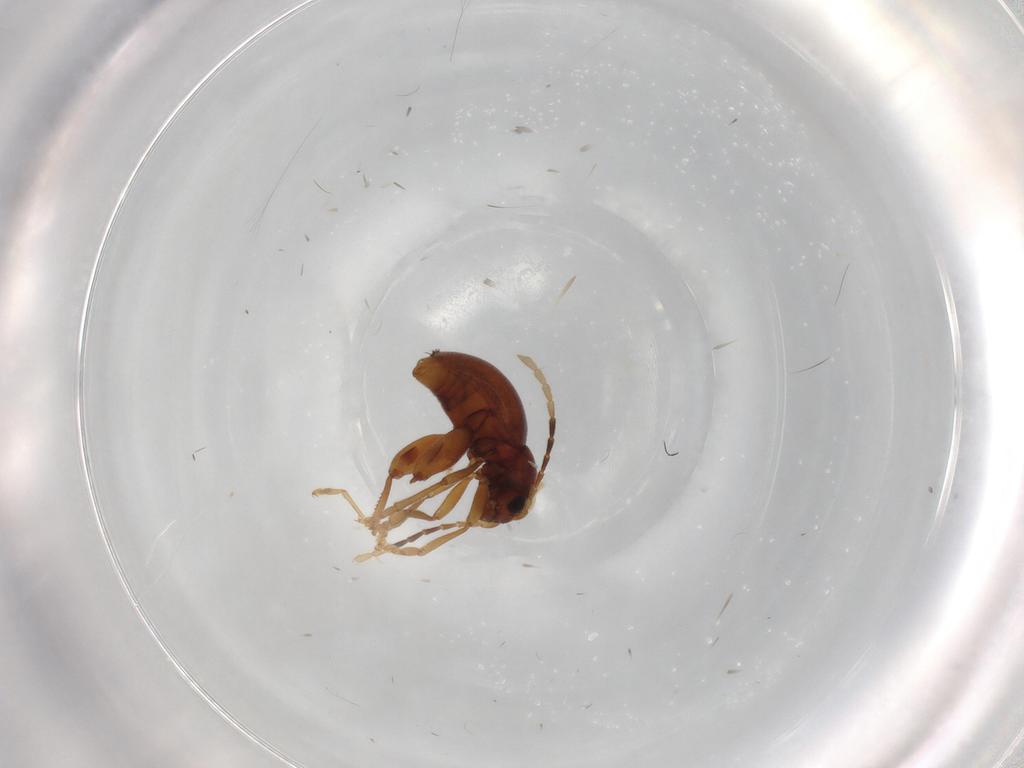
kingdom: Animalia
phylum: Arthropoda
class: Insecta
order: Coleoptera
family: Chrysomelidae
